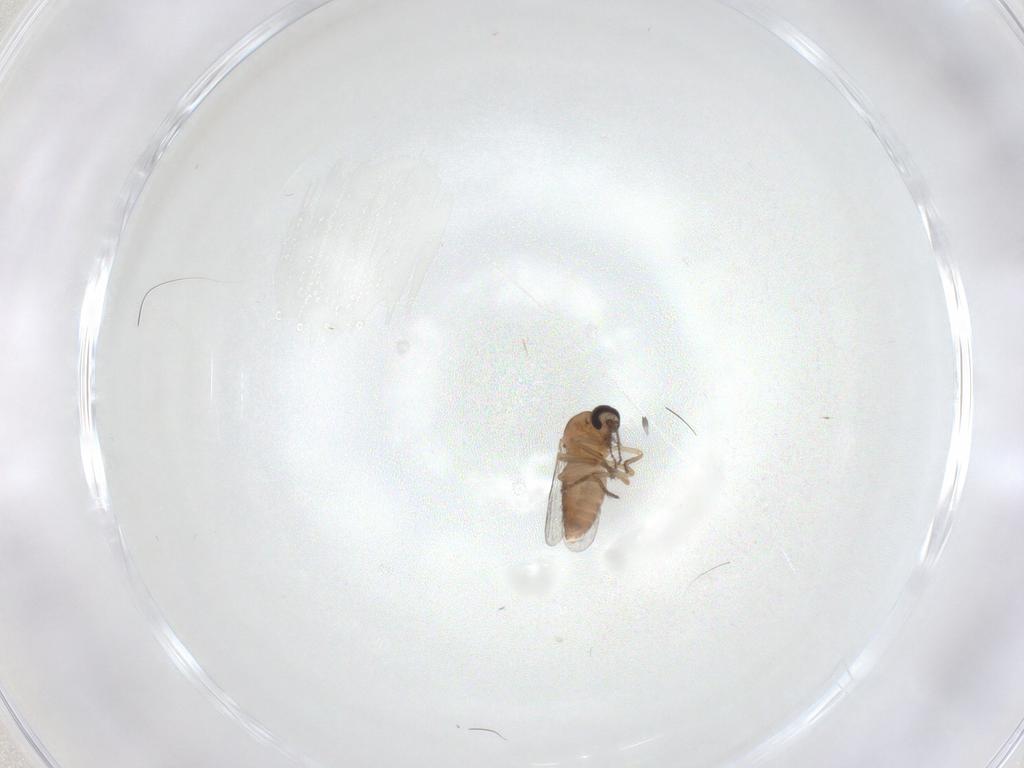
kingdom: Animalia
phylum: Arthropoda
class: Insecta
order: Diptera
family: Ceratopogonidae
